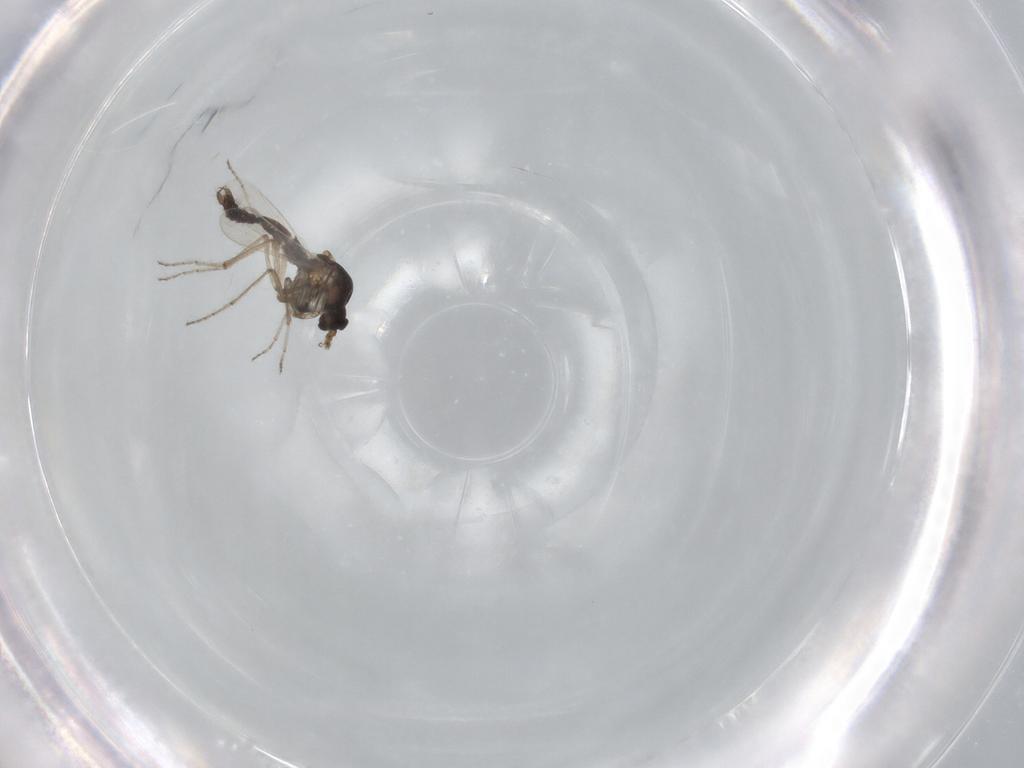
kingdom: Animalia
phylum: Arthropoda
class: Insecta
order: Diptera
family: Ceratopogonidae
